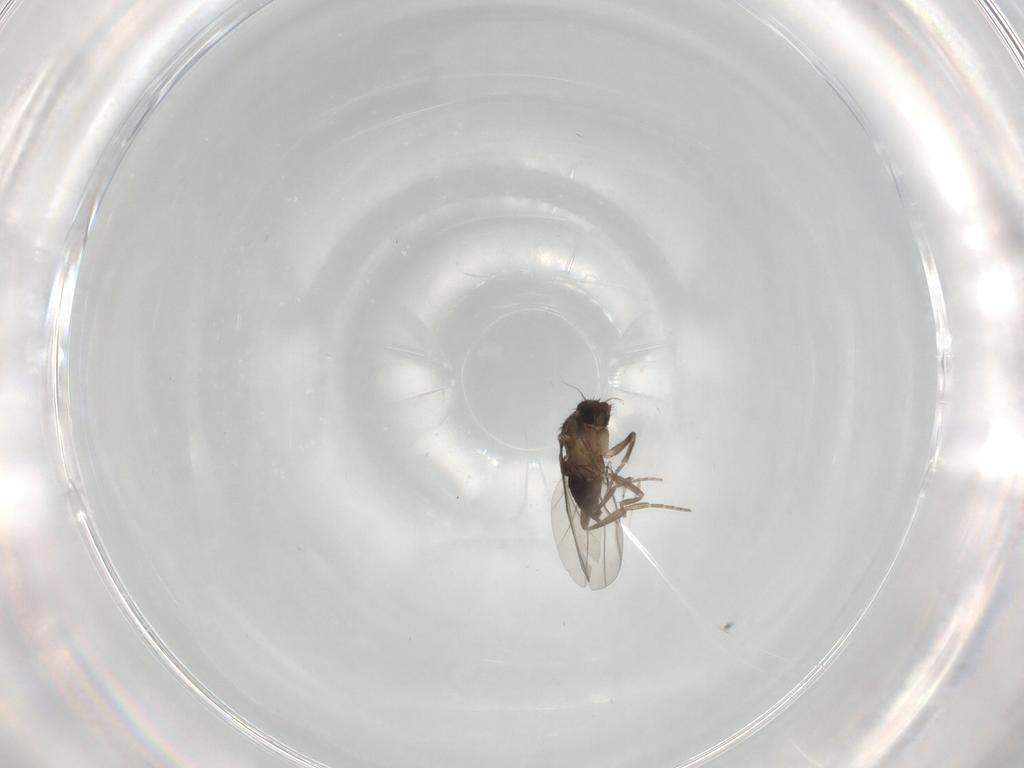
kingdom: Animalia
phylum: Arthropoda
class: Insecta
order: Diptera
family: Phoridae
